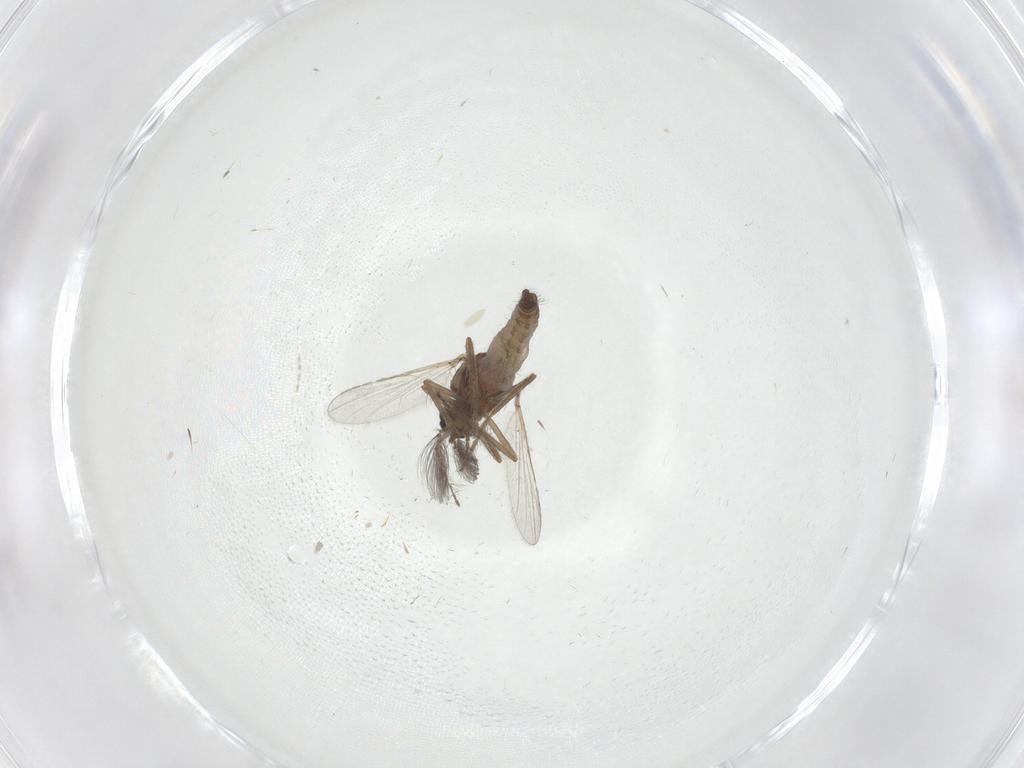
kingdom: Animalia
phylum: Arthropoda
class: Insecta
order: Diptera
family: Ceratopogonidae
